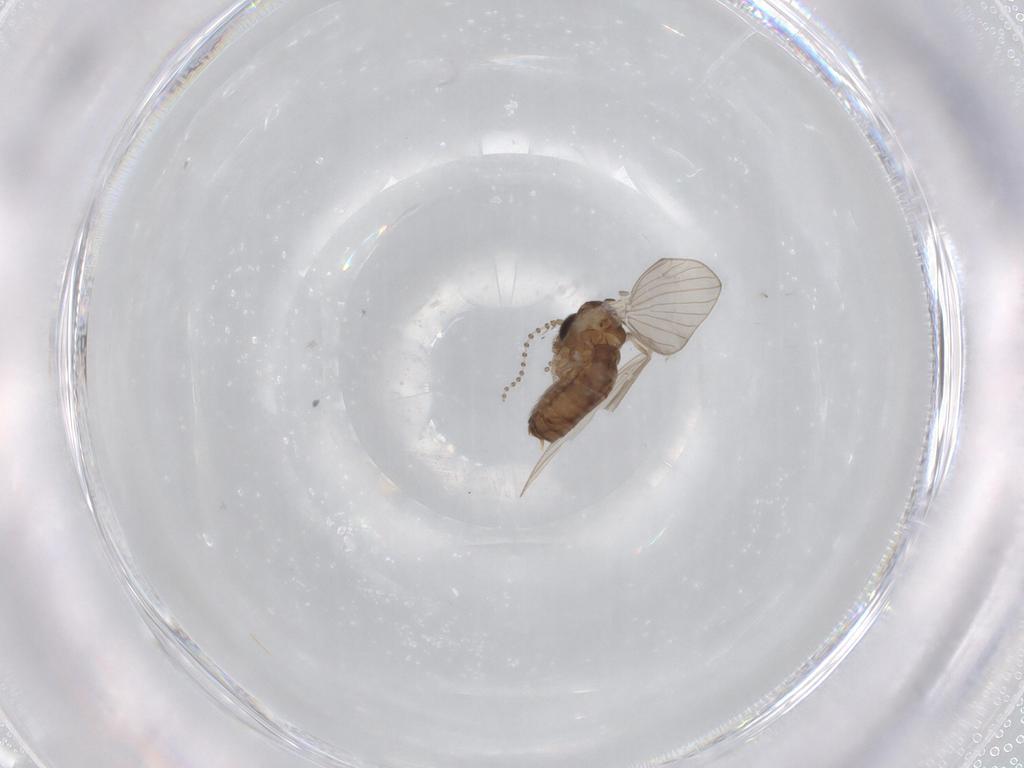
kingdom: Animalia
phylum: Arthropoda
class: Insecta
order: Diptera
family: Psychodidae
